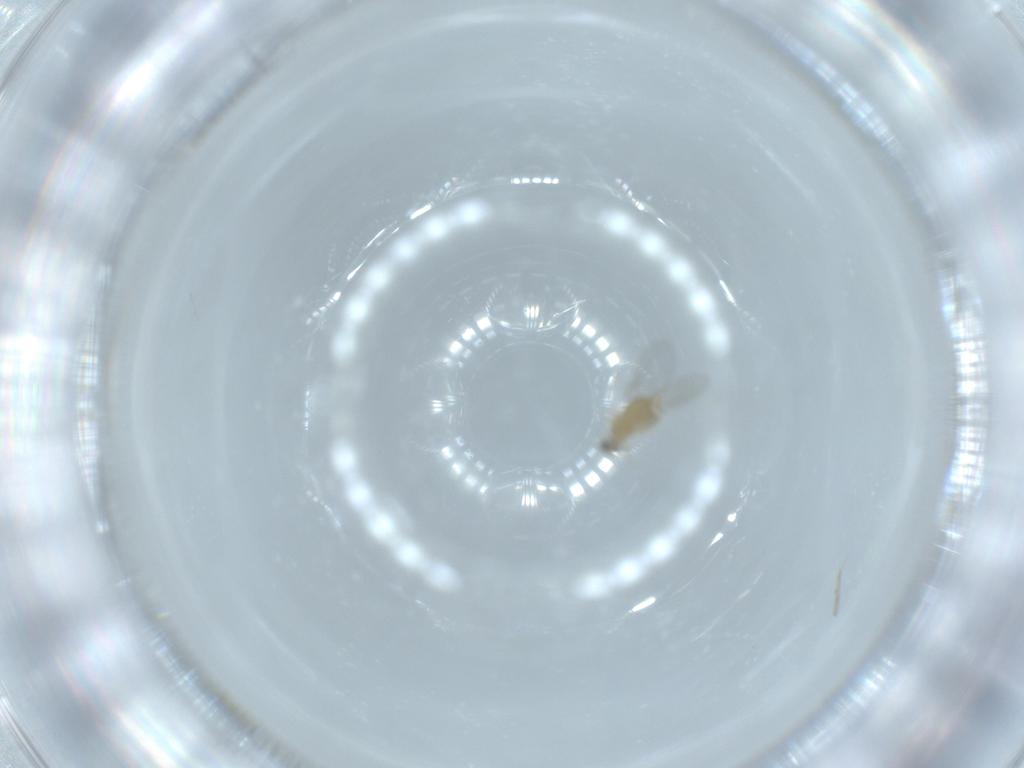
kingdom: Animalia
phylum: Arthropoda
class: Insecta
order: Diptera
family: Cecidomyiidae
